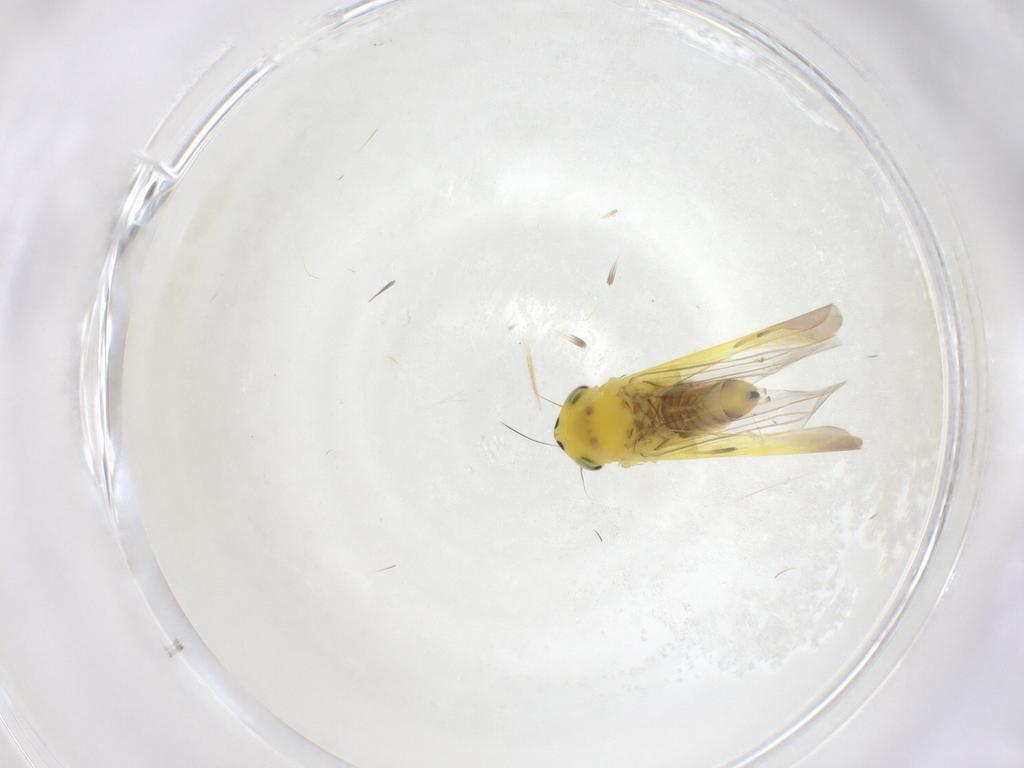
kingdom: Animalia
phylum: Arthropoda
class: Insecta
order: Hemiptera
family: Cicadellidae
